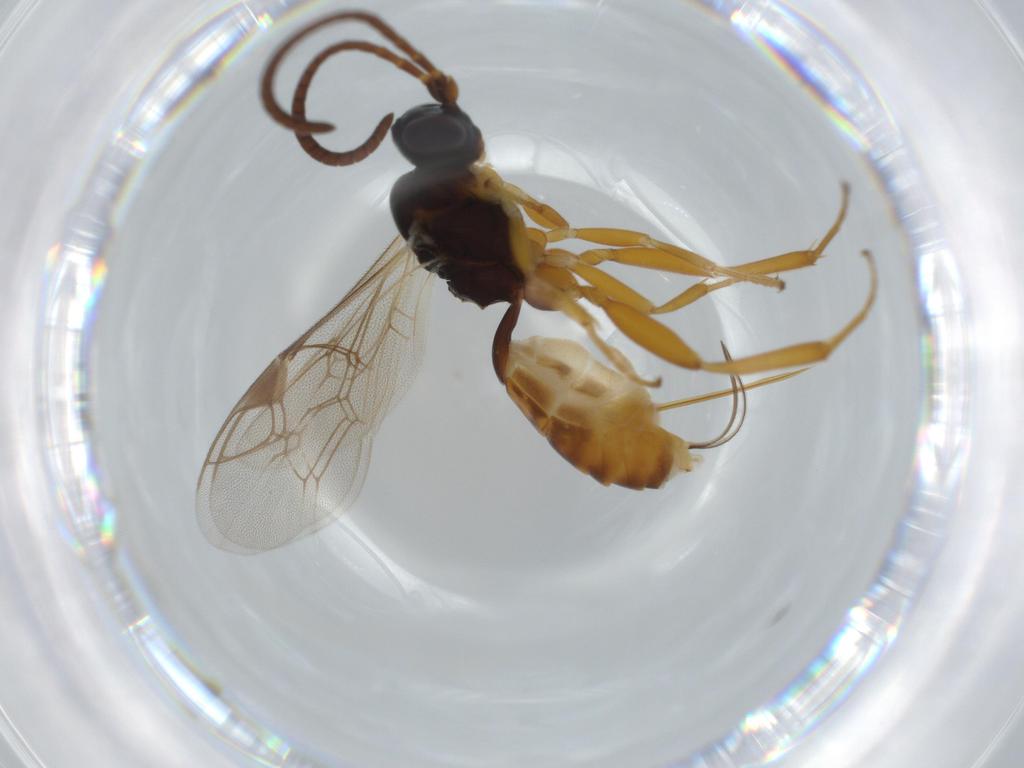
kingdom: Animalia
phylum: Arthropoda
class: Insecta
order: Hymenoptera
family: Ichneumonidae
